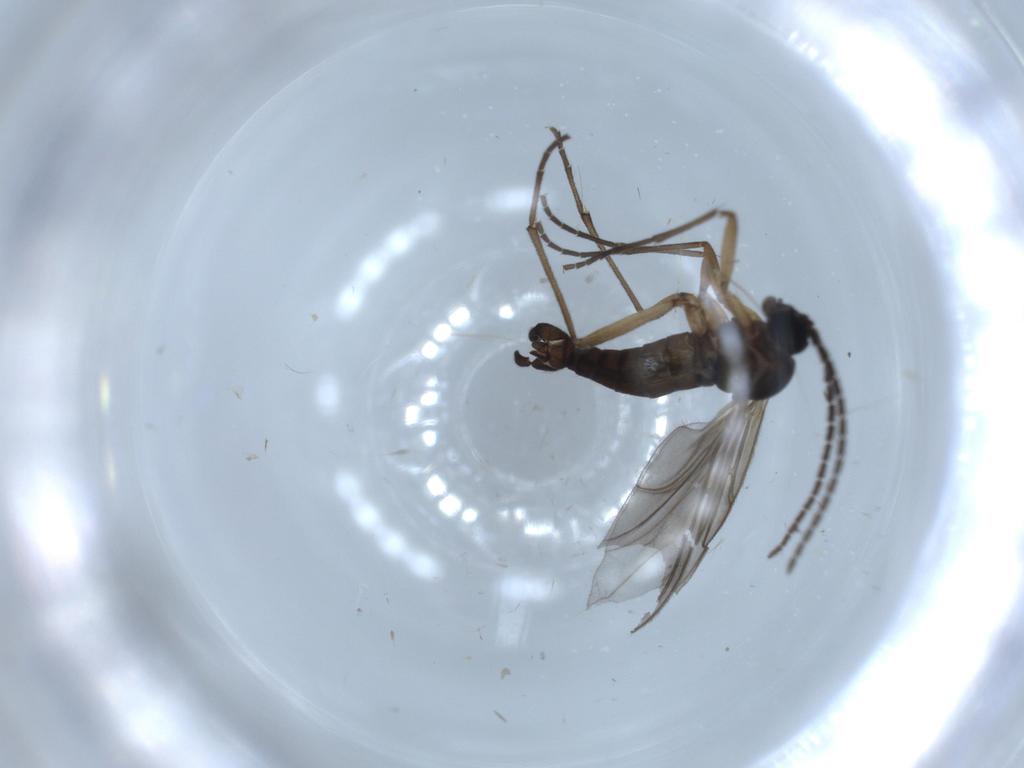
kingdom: Animalia
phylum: Arthropoda
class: Insecta
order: Diptera
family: Sciaridae
